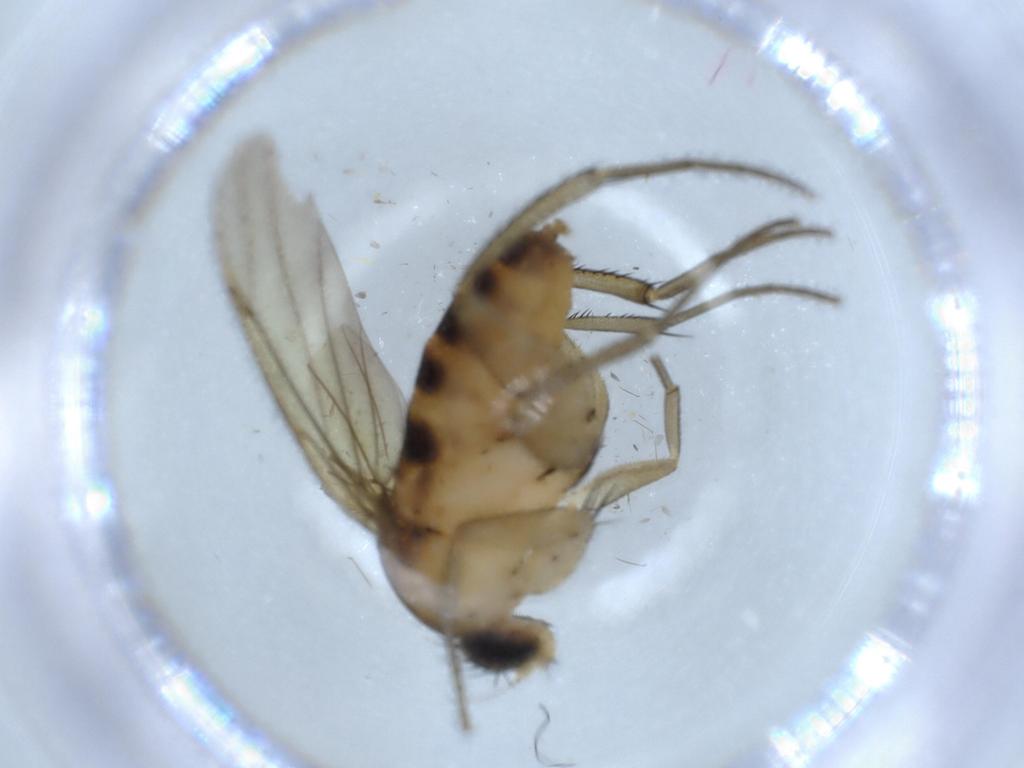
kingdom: Animalia
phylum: Arthropoda
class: Insecta
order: Diptera
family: Phoridae
